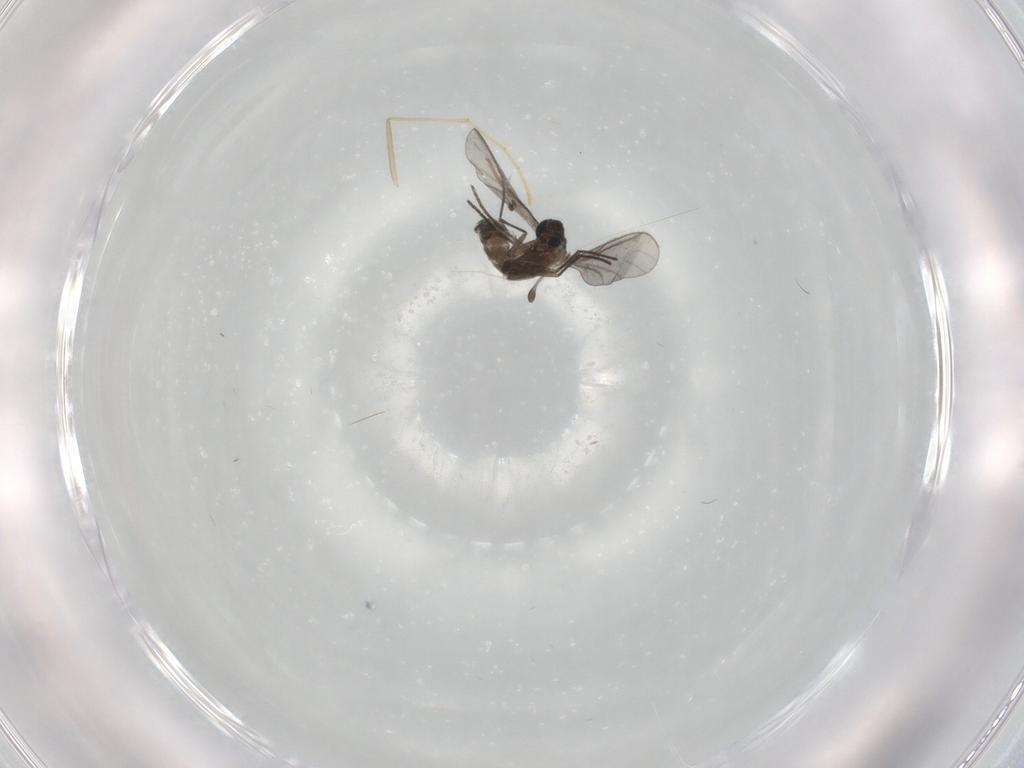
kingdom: Animalia
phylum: Arthropoda
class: Insecta
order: Diptera
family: Psychodidae
